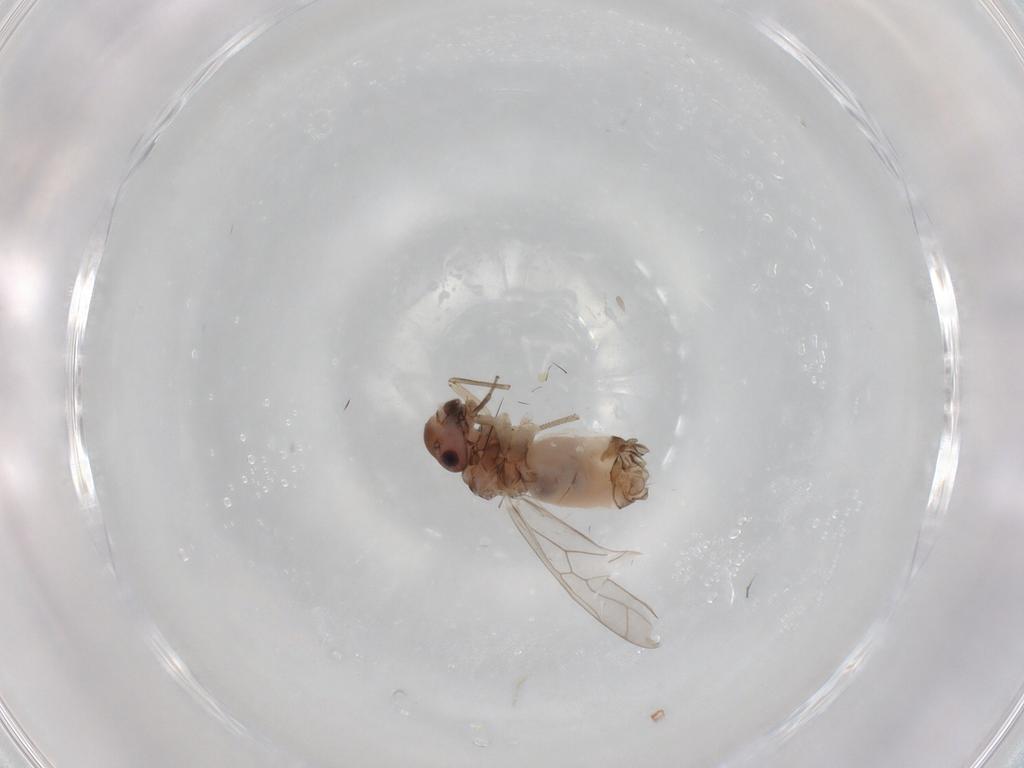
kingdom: Animalia
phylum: Arthropoda
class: Insecta
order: Psocodea
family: Peripsocidae
